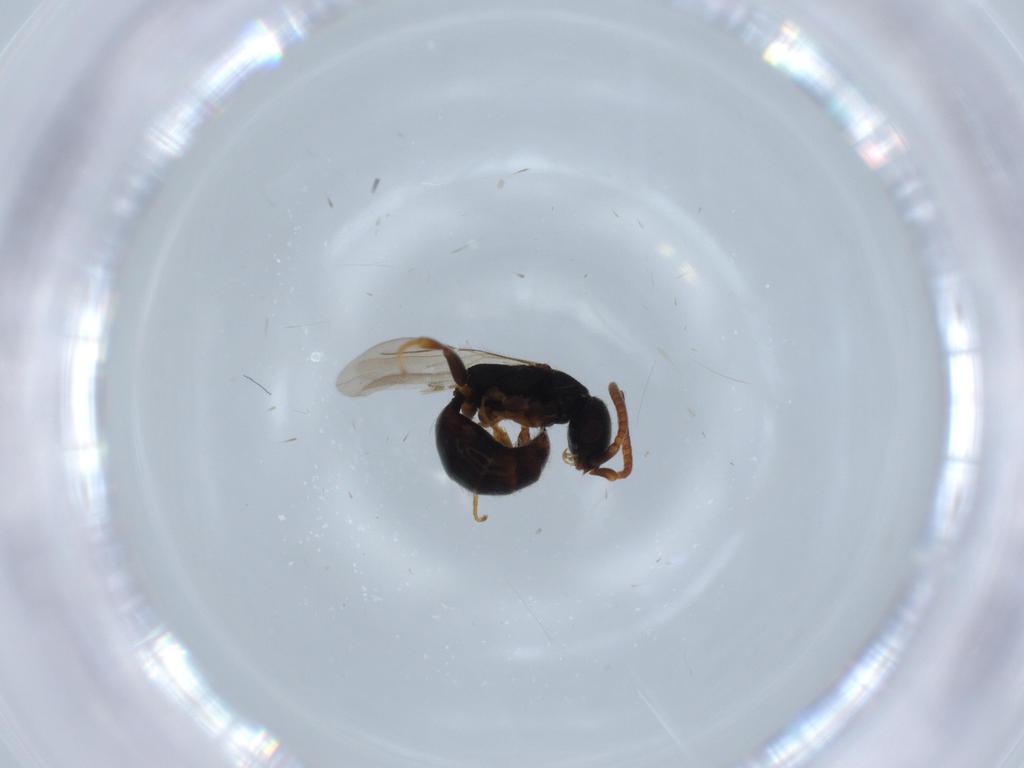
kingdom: Animalia
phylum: Arthropoda
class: Insecta
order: Hymenoptera
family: Bethylidae
